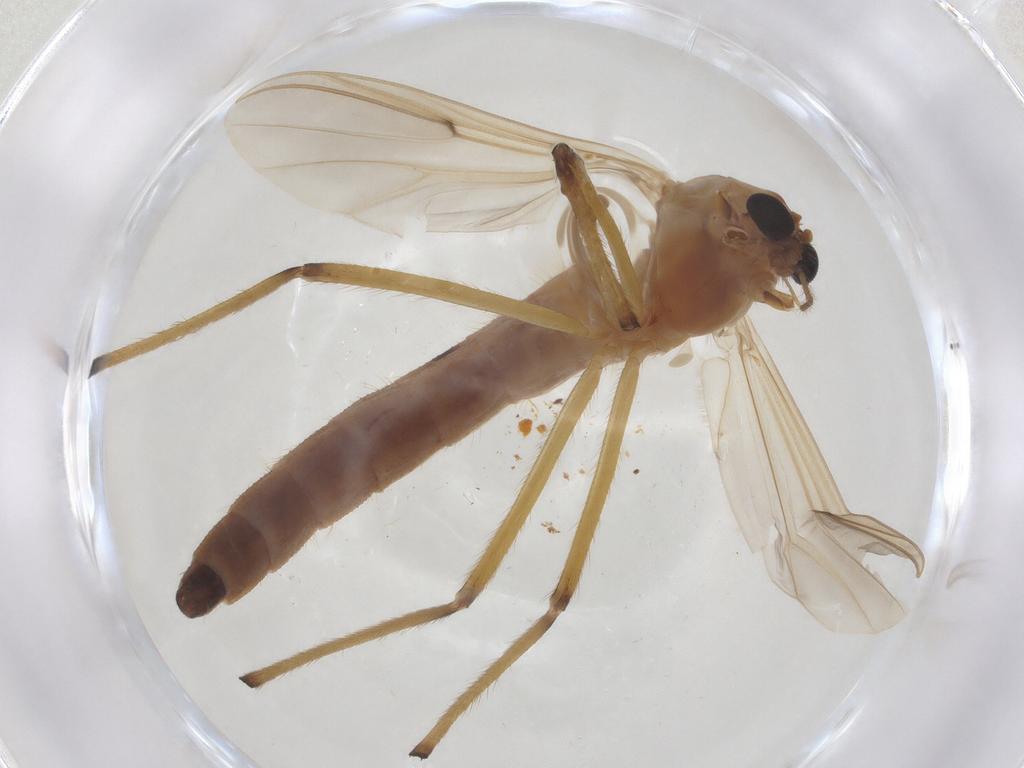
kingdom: Animalia
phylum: Arthropoda
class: Insecta
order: Diptera
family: Chironomidae
